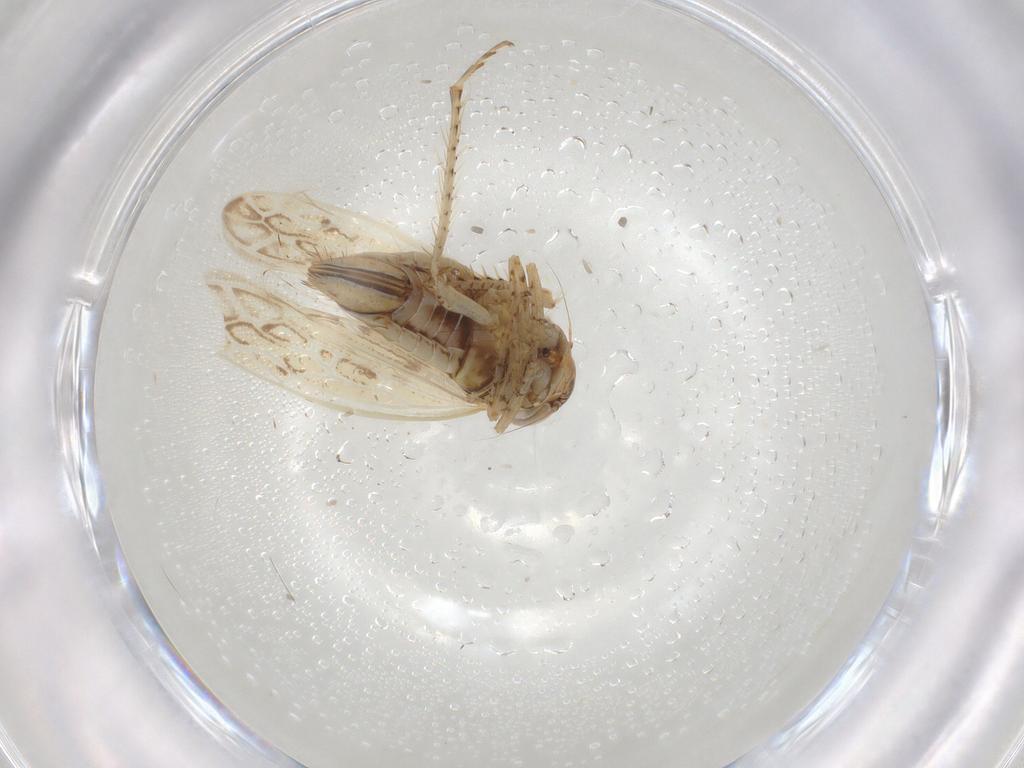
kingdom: Animalia
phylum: Arthropoda
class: Insecta
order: Hemiptera
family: Cicadellidae
